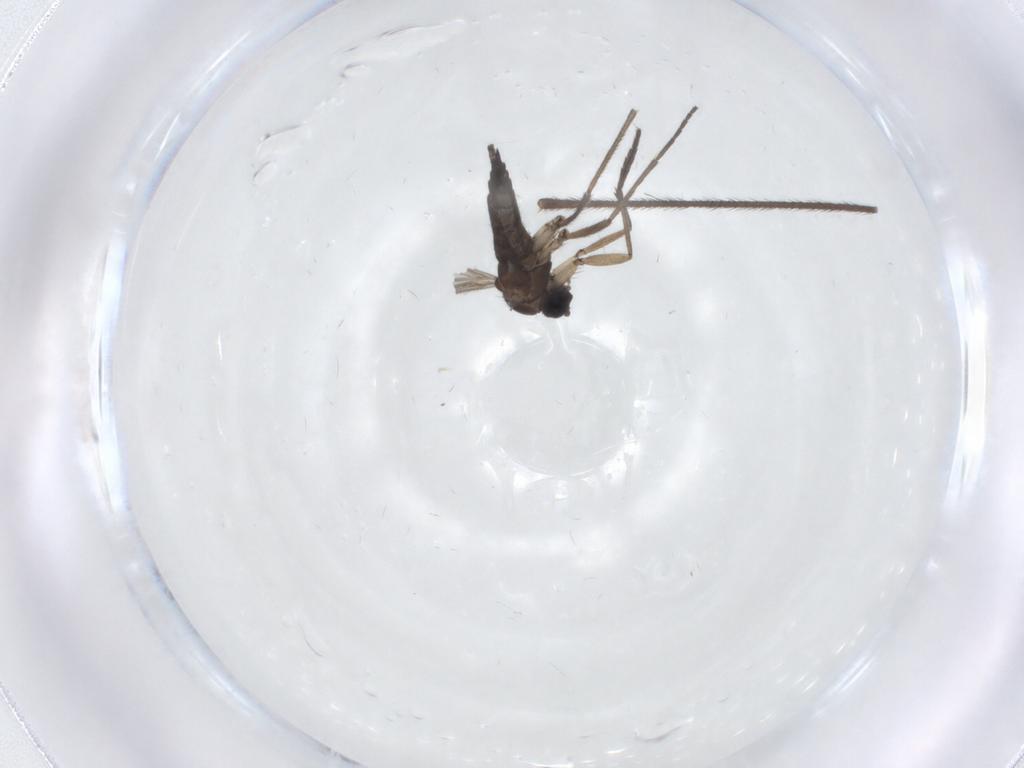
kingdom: Animalia
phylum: Arthropoda
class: Insecta
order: Diptera
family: Sciaridae
